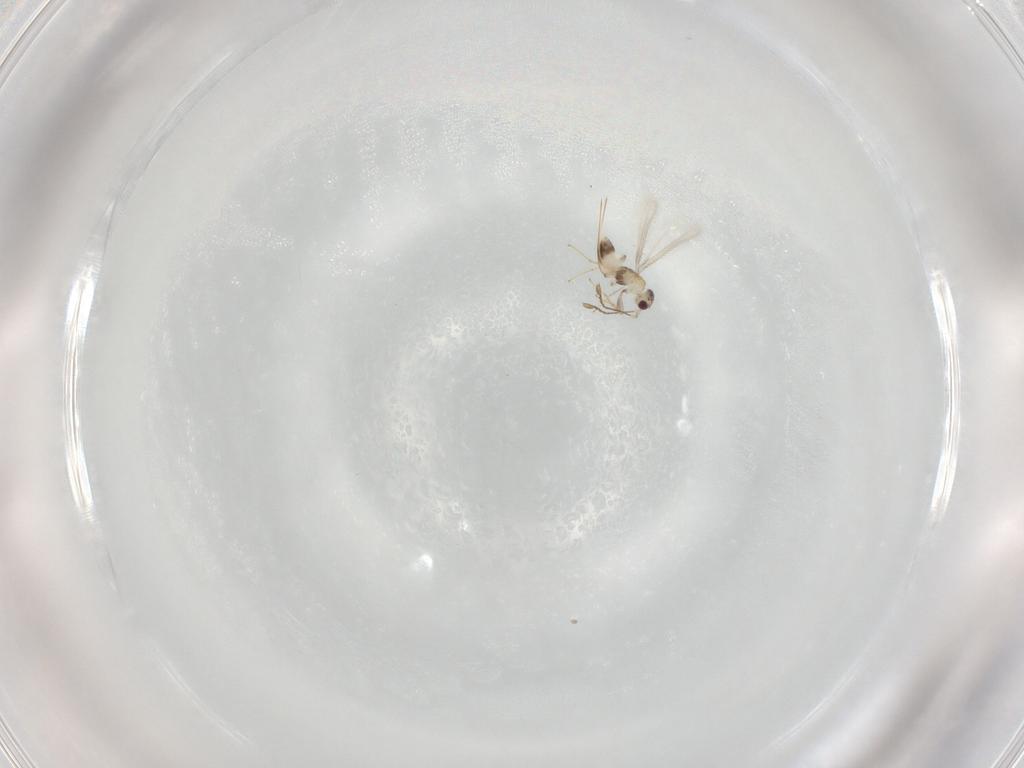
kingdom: Animalia
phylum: Arthropoda
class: Insecta
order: Hymenoptera
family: Mymaridae
